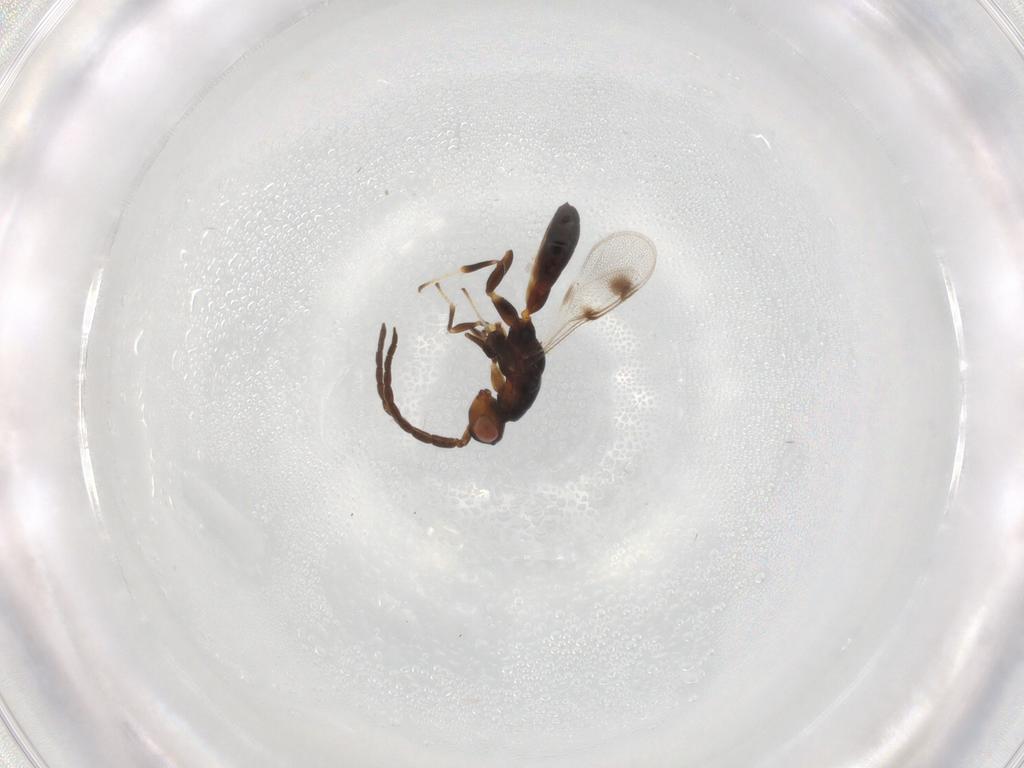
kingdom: Animalia
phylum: Arthropoda
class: Insecta
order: Hymenoptera
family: Pteromalidae
